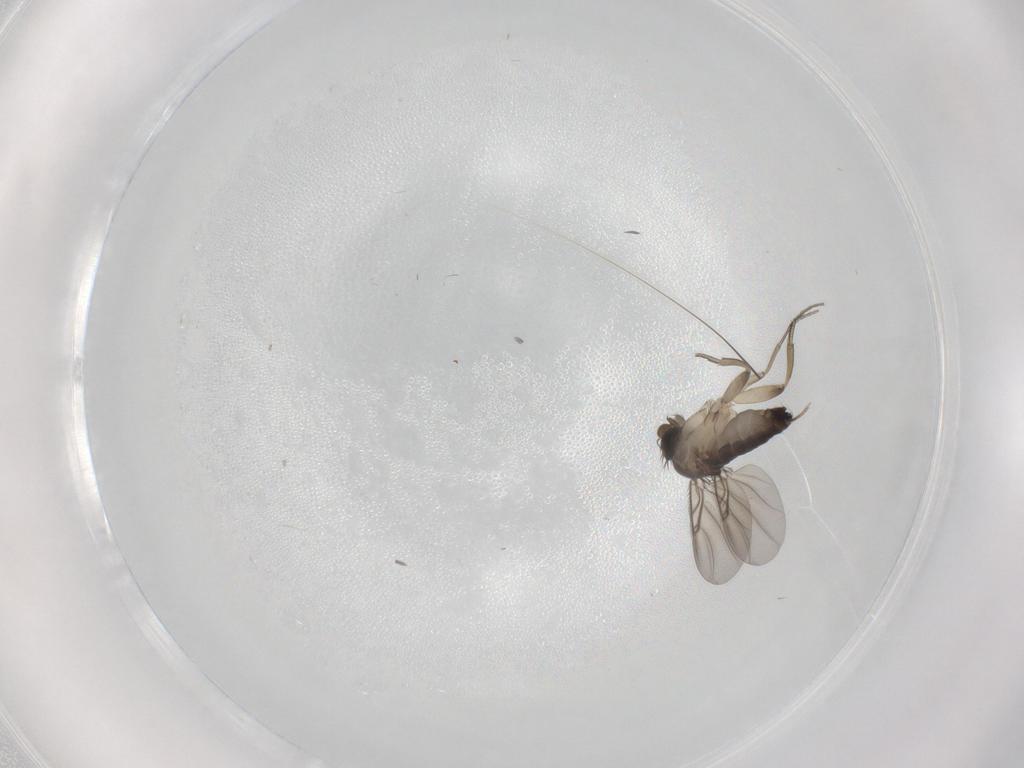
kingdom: Animalia
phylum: Arthropoda
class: Insecta
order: Diptera
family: Phoridae
